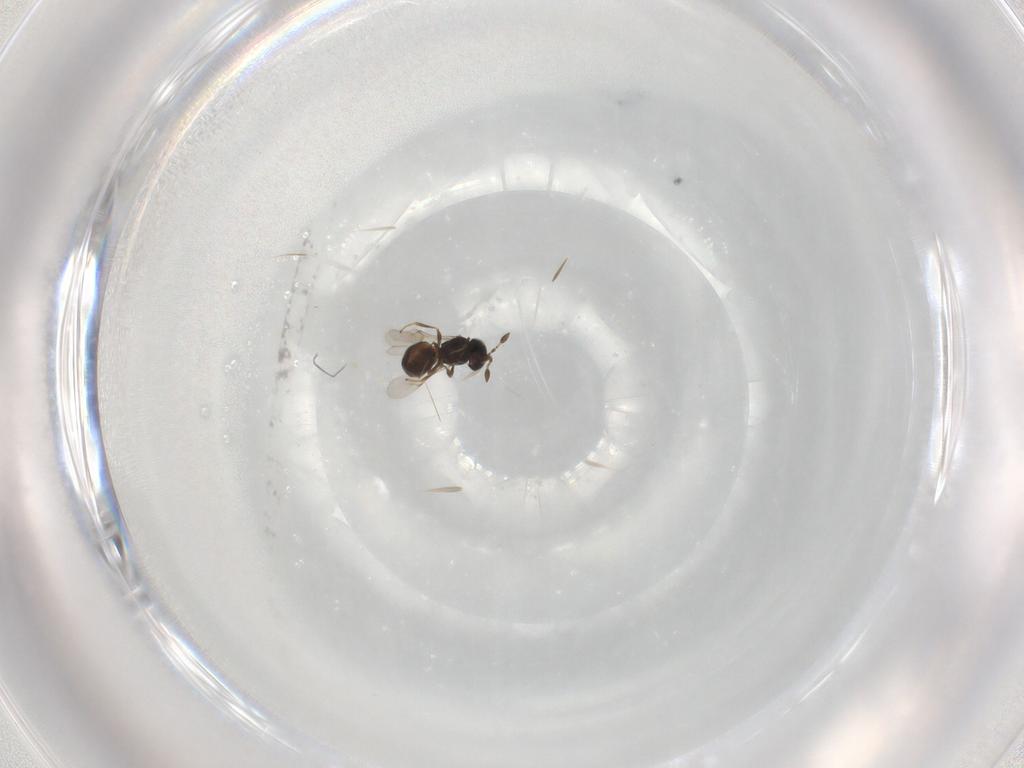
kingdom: Animalia
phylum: Arthropoda
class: Insecta
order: Hymenoptera
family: Scelionidae
